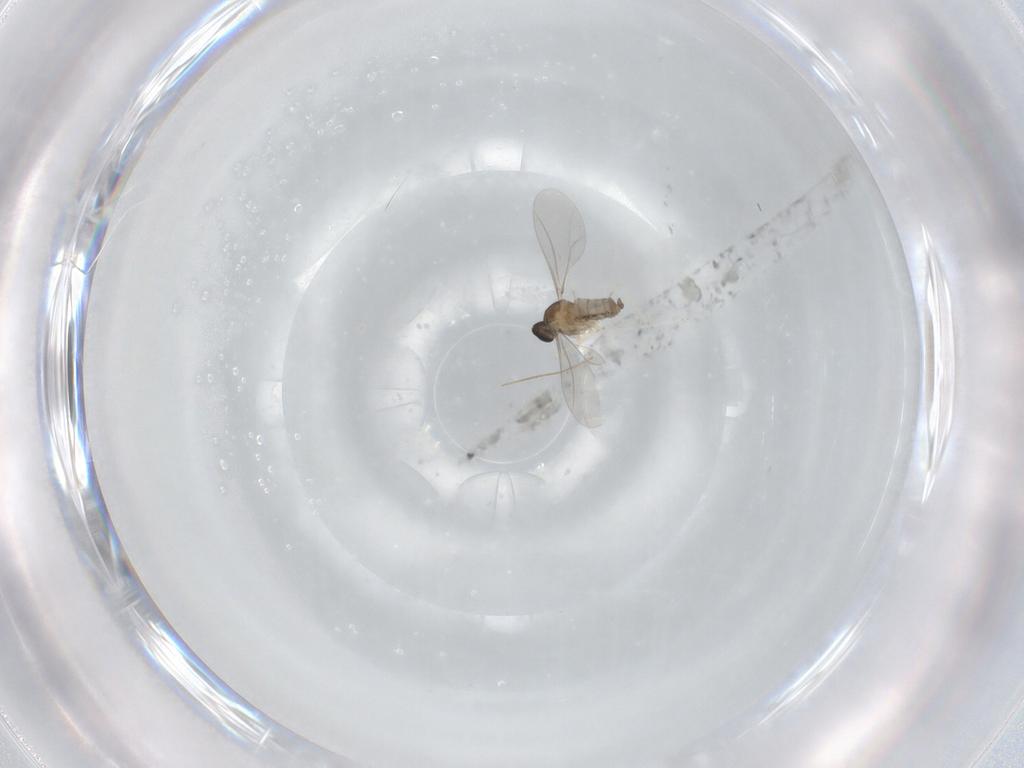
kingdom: Animalia
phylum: Arthropoda
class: Insecta
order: Diptera
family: Cecidomyiidae
